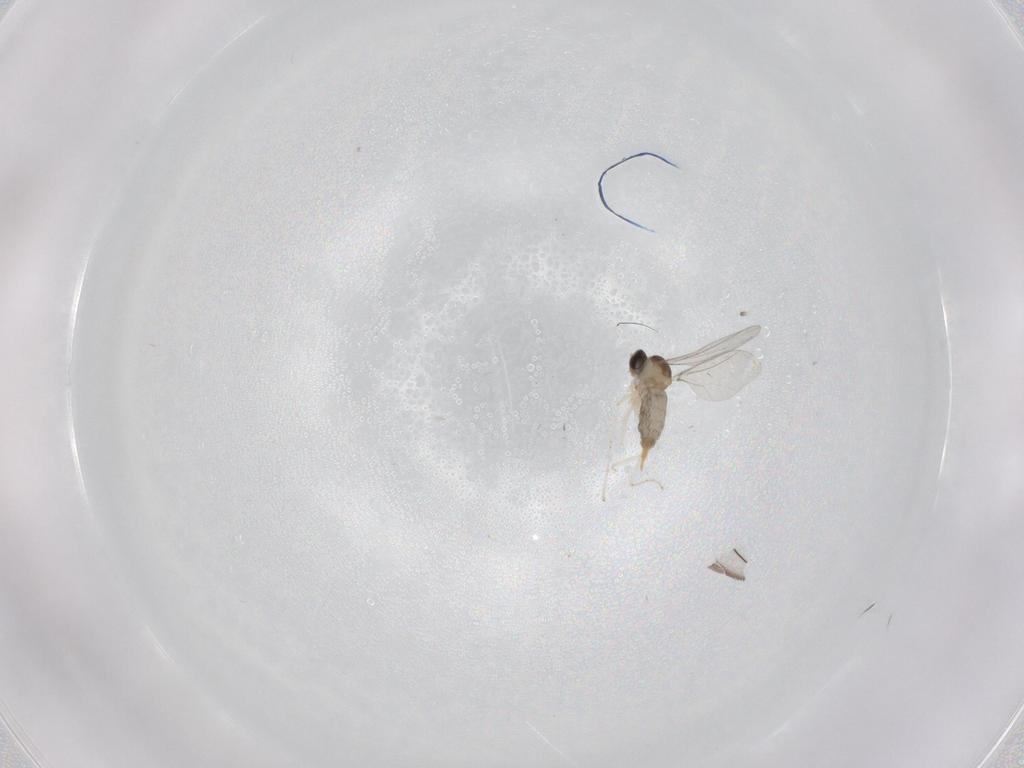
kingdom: Animalia
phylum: Arthropoda
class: Insecta
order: Diptera
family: Cecidomyiidae
